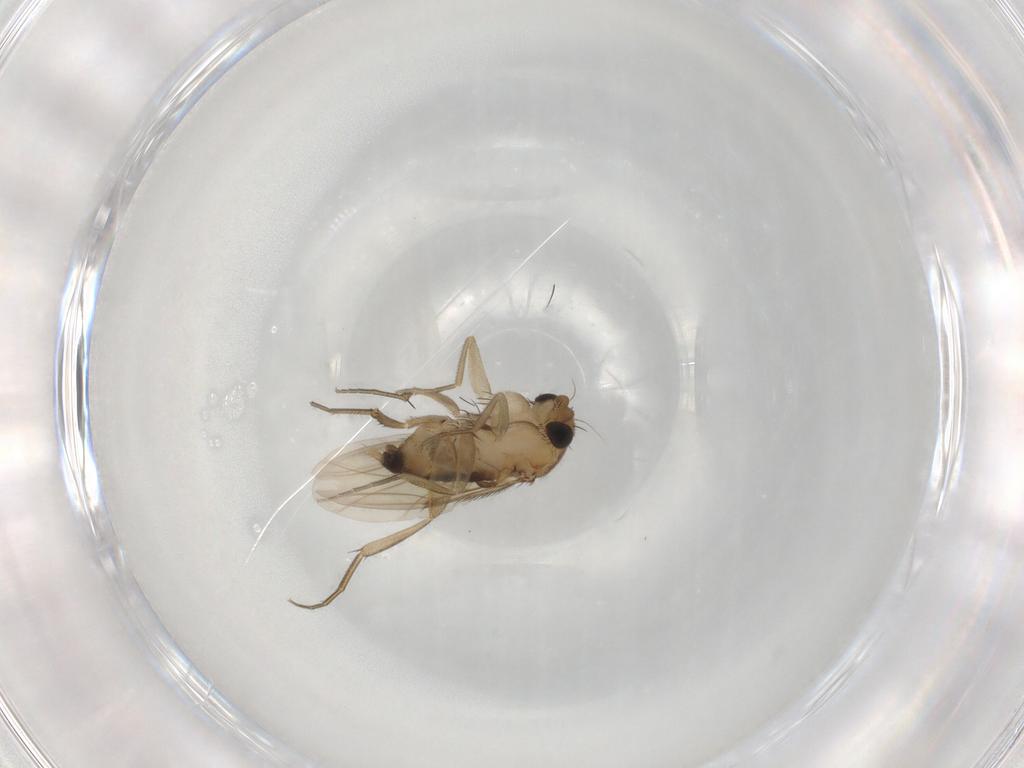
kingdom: Animalia
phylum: Arthropoda
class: Insecta
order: Diptera
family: Phoridae
